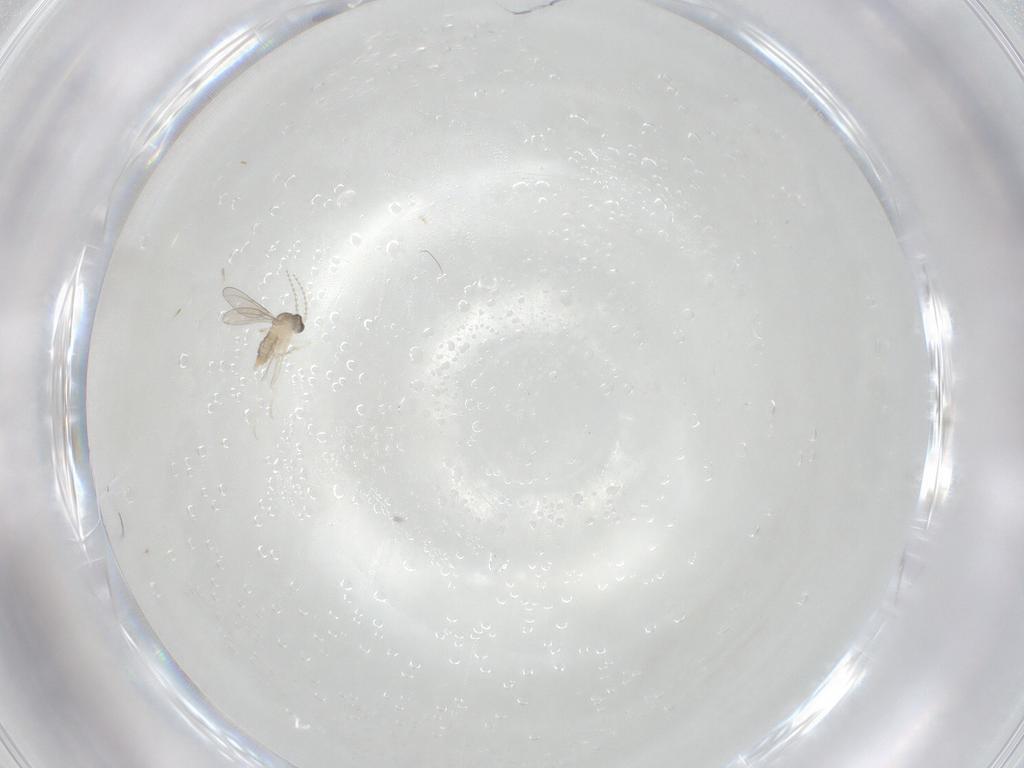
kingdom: Animalia
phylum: Arthropoda
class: Insecta
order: Diptera
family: Cecidomyiidae
